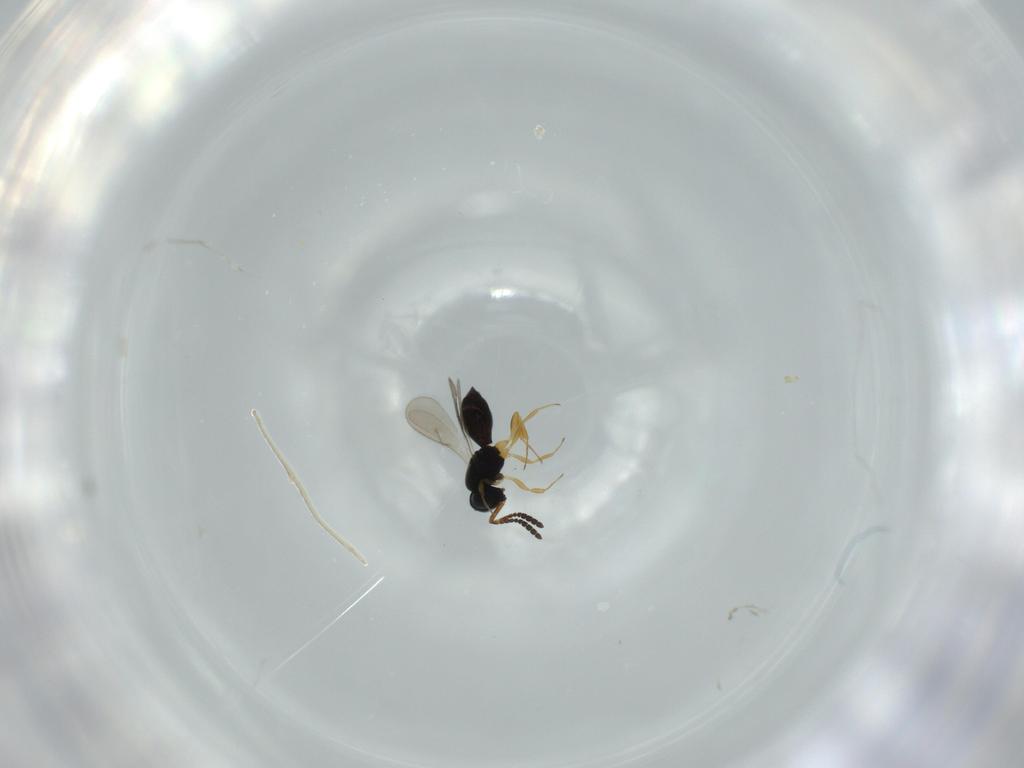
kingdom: Animalia
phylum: Arthropoda
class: Insecta
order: Hymenoptera
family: Scelionidae
